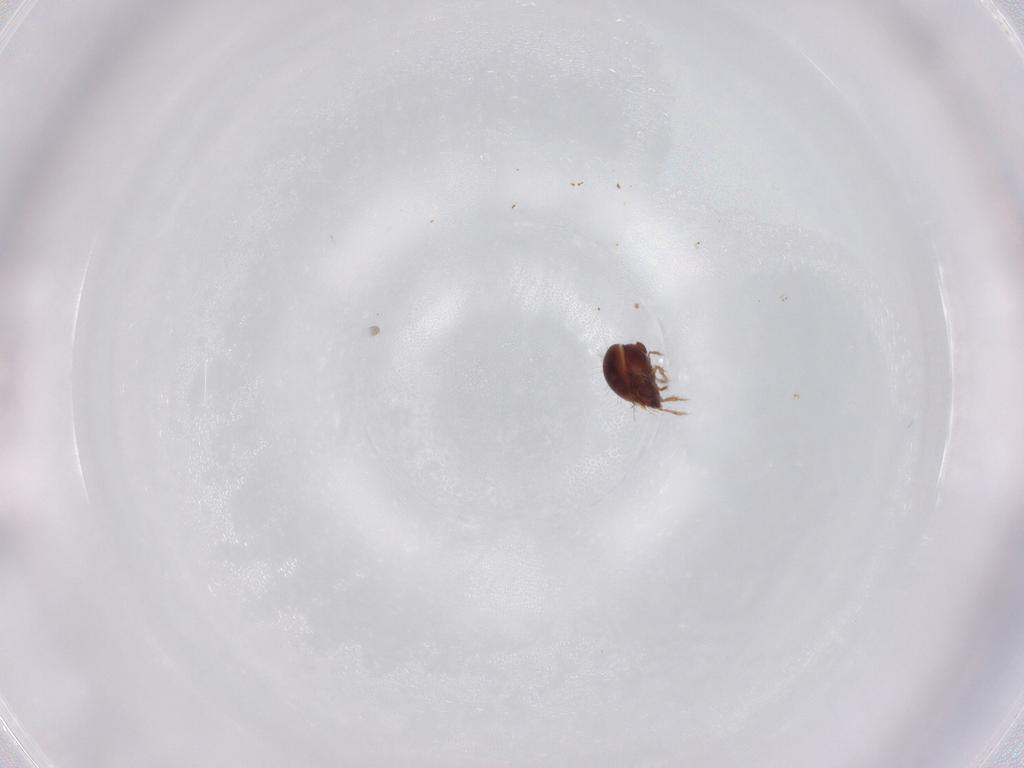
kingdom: Animalia
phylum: Arthropoda
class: Arachnida
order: Sarcoptiformes
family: Humerobatidae
